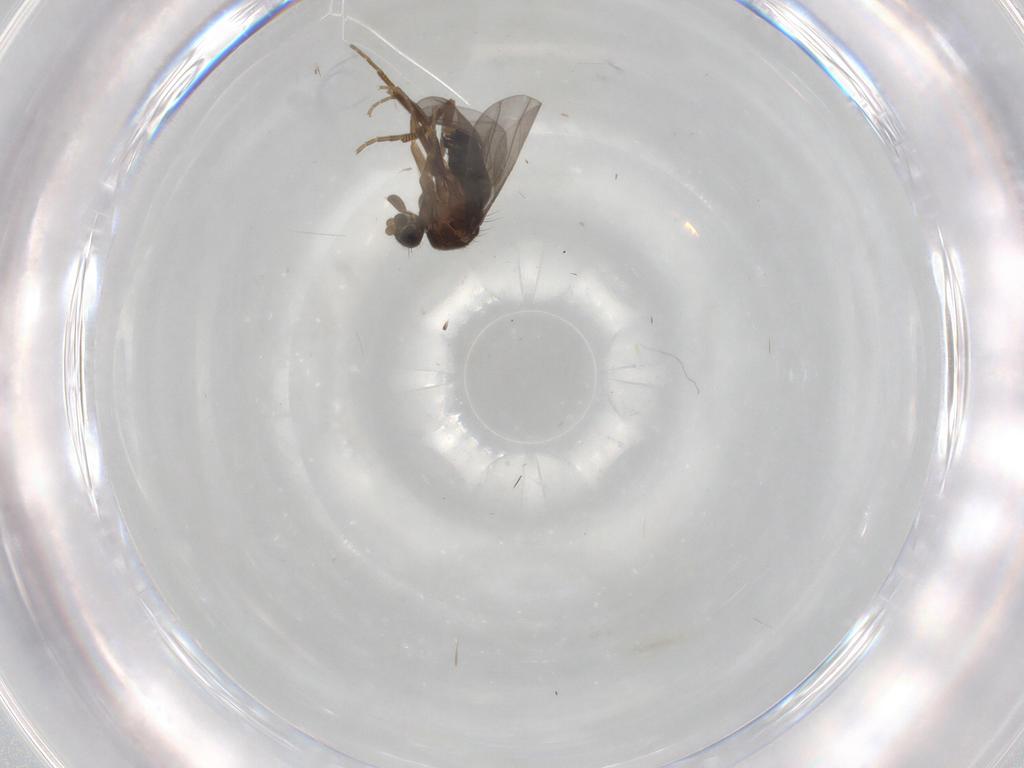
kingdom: Animalia
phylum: Arthropoda
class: Insecta
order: Diptera
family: Phoridae
